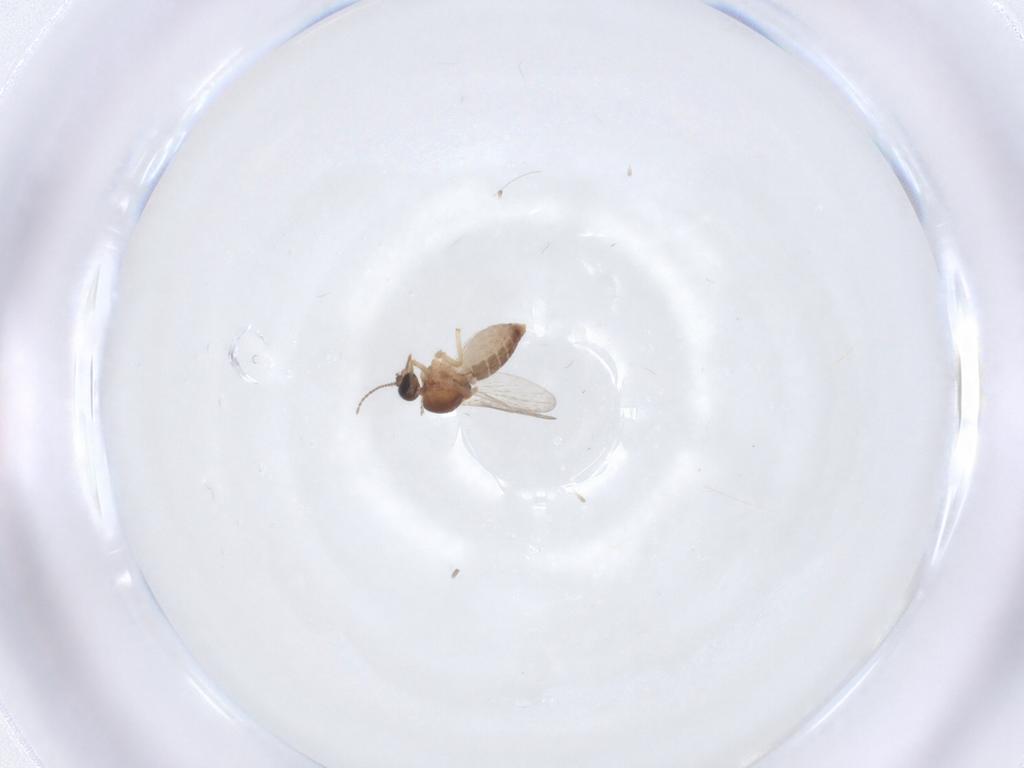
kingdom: Animalia
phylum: Arthropoda
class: Insecta
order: Diptera
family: Ceratopogonidae
